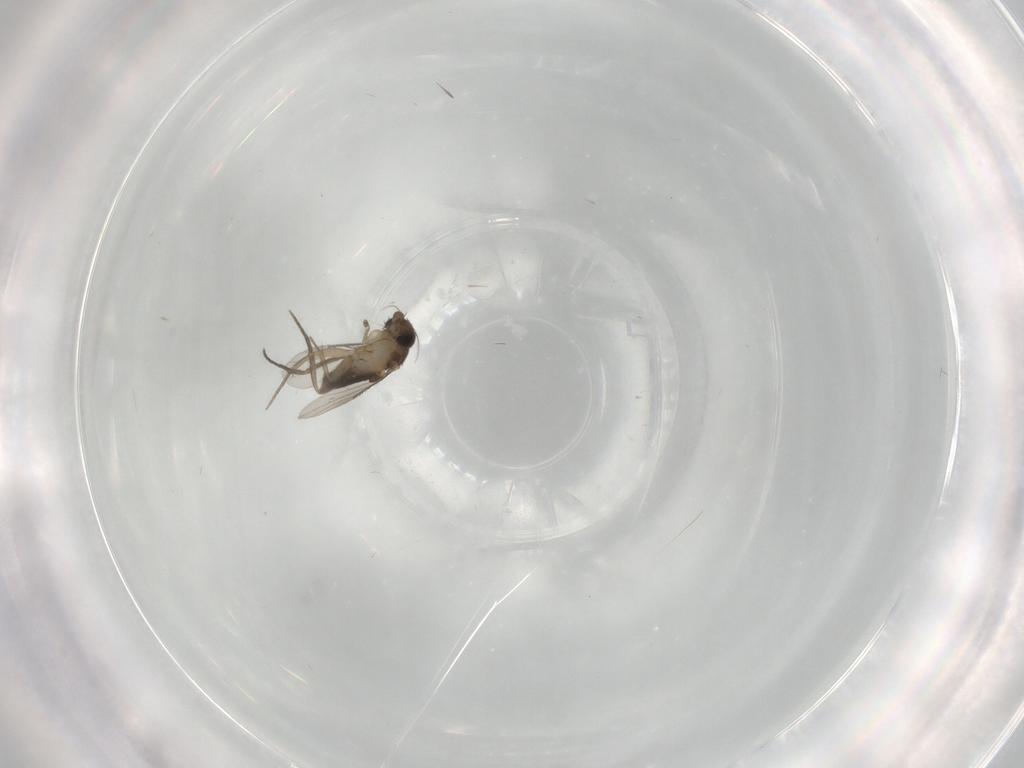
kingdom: Animalia
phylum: Arthropoda
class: Insecta
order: Diptera
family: Phoridae
